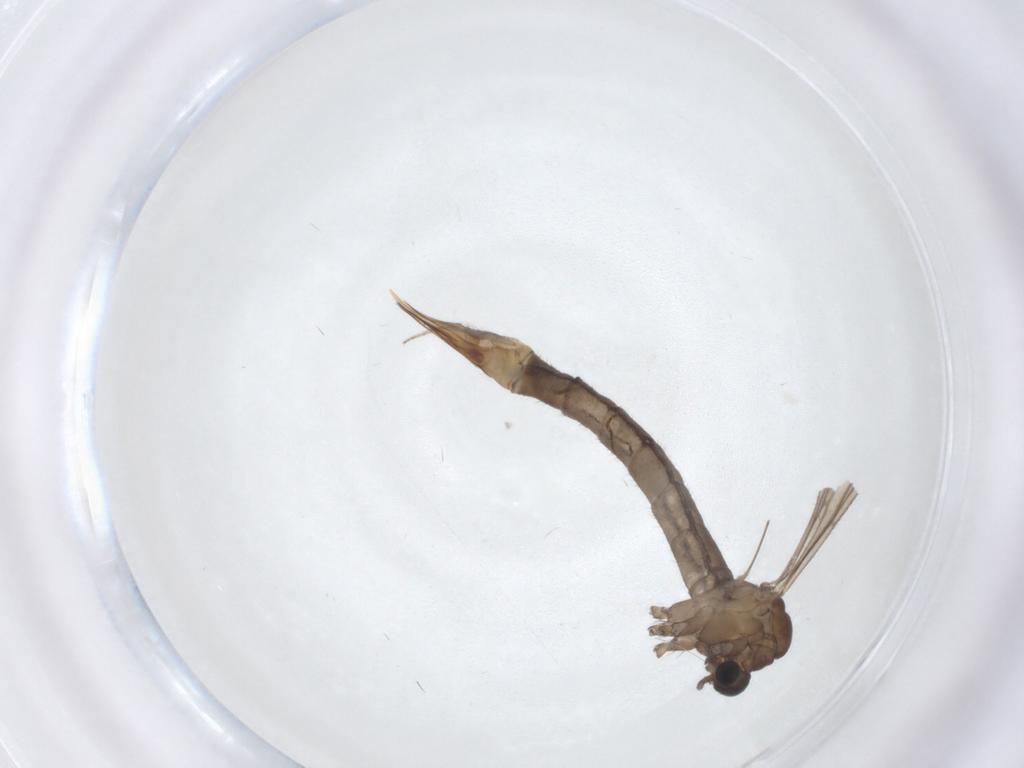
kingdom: Animalia
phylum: Arthropoda
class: Insecta
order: Diptera
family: Limoniidae
